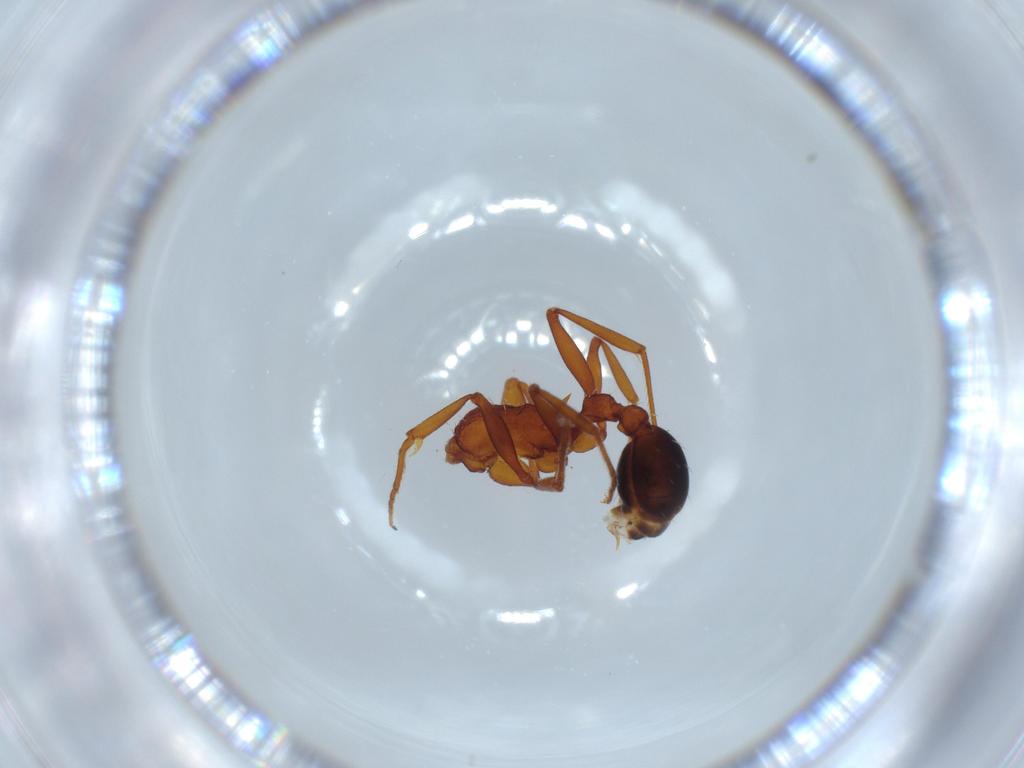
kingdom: Animalia
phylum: Arthropoda
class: Insecta
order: Hymenoptera
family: Formicidae
